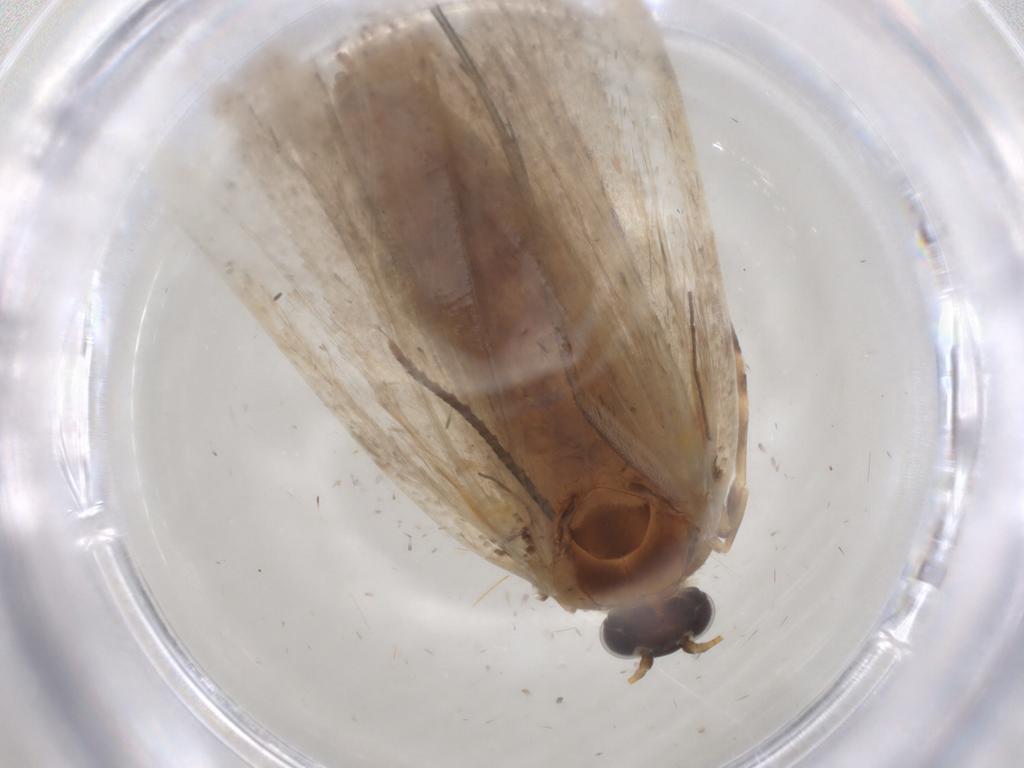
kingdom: Animalia
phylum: Arthropoda
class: Insecta
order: Lepidoptera
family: Crambidae
